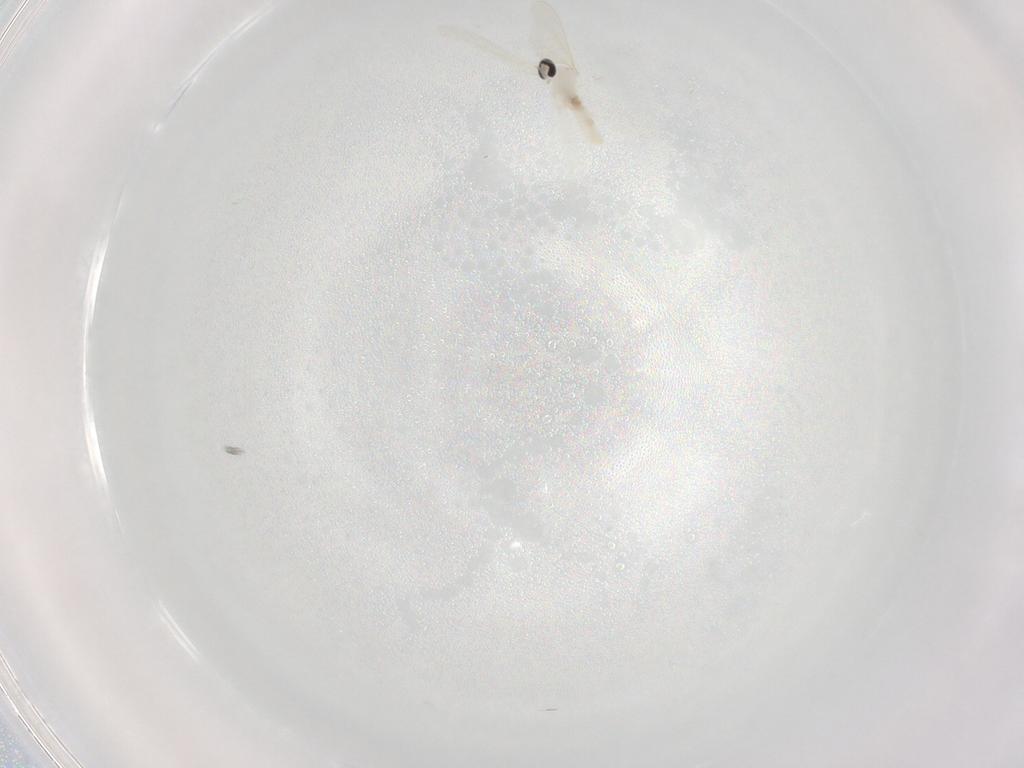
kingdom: Animalia
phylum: Arthropoda
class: Insecta
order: Diptera
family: Cecidomyiidae
